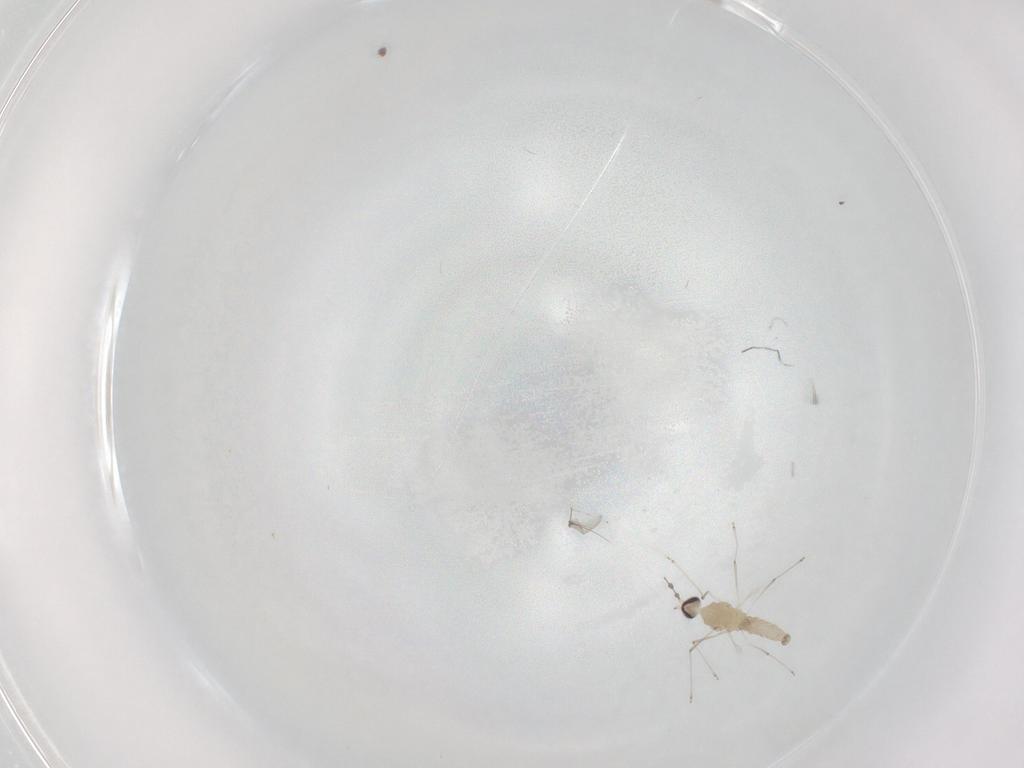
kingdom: Animalia
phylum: Arthropoda
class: Insecta
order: Diptera
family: Cecidomyiidae
